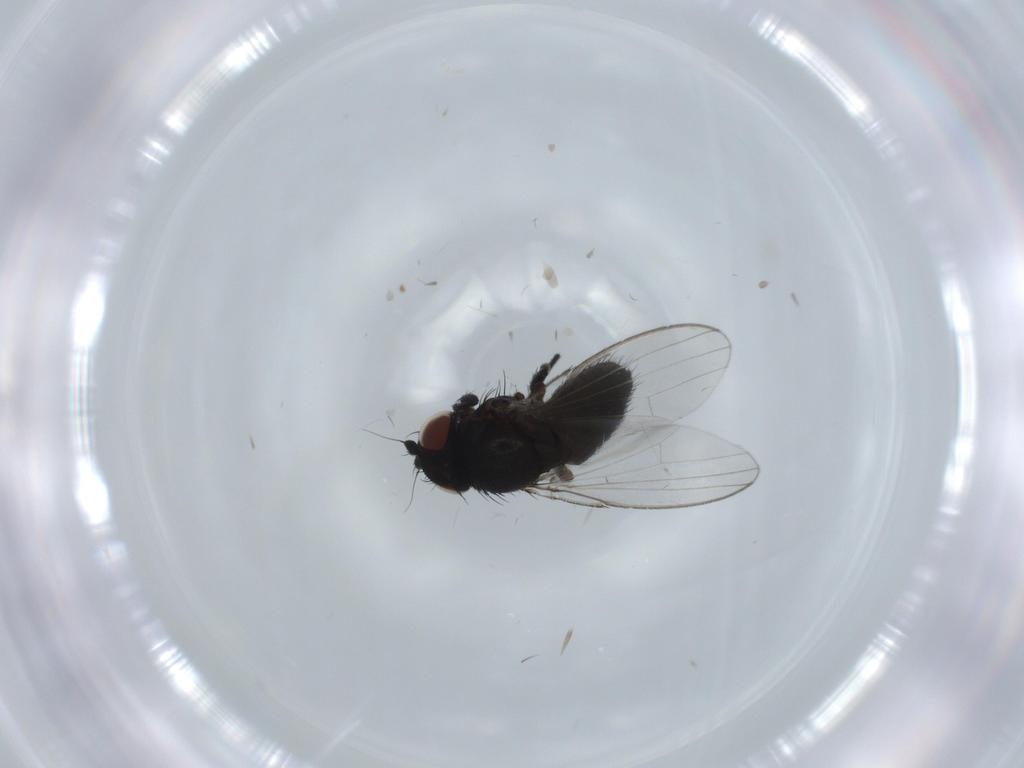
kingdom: Animalia
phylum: Arthropoda
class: Insecta
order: Diptera
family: Sciaridae
